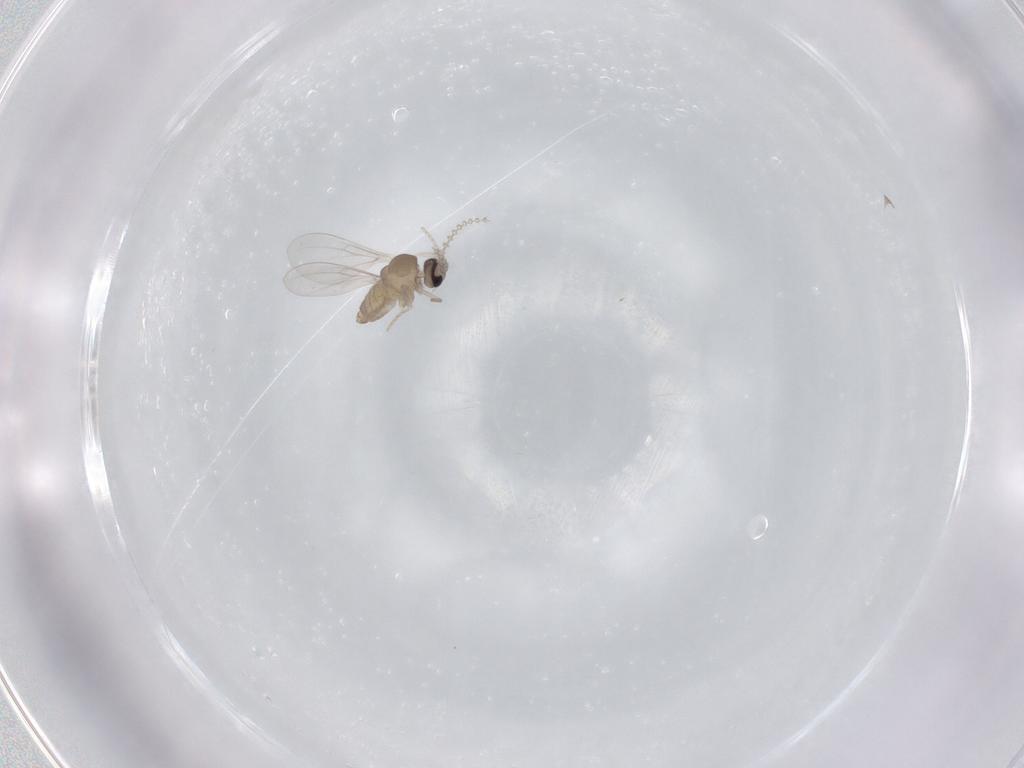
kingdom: Animalia
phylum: Arthropoda
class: Insecta
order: Diptera
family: Cecidomyiidae
